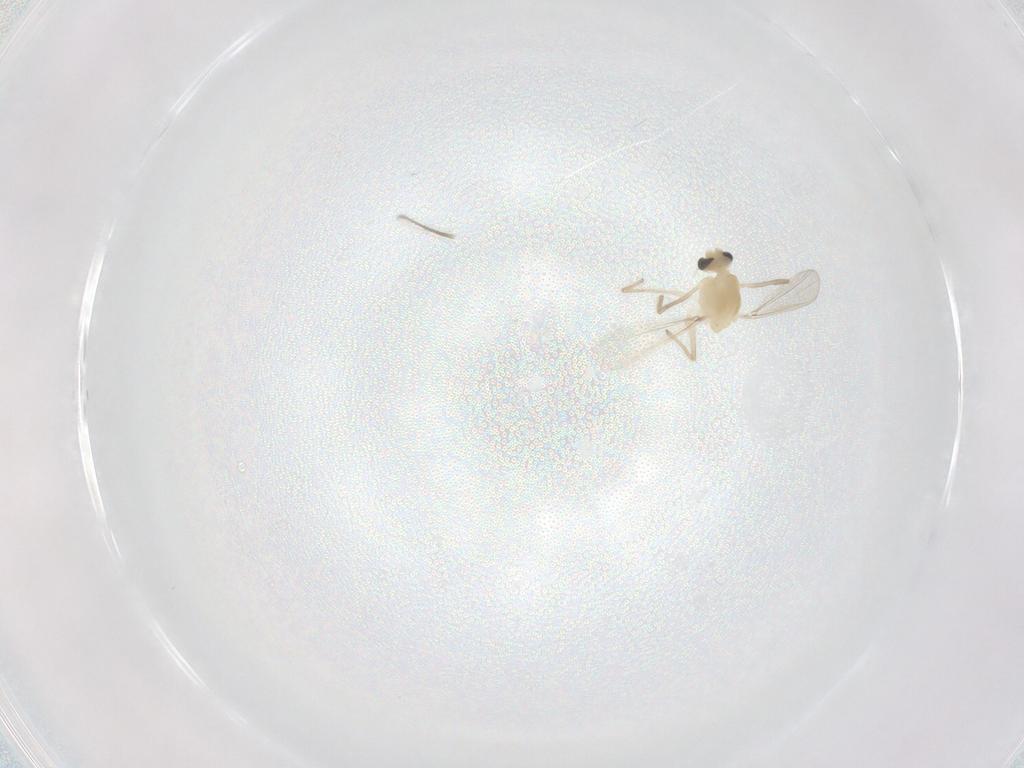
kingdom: Animalia
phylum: Arthropoda
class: Insecta
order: Diptera
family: Chironomidae
